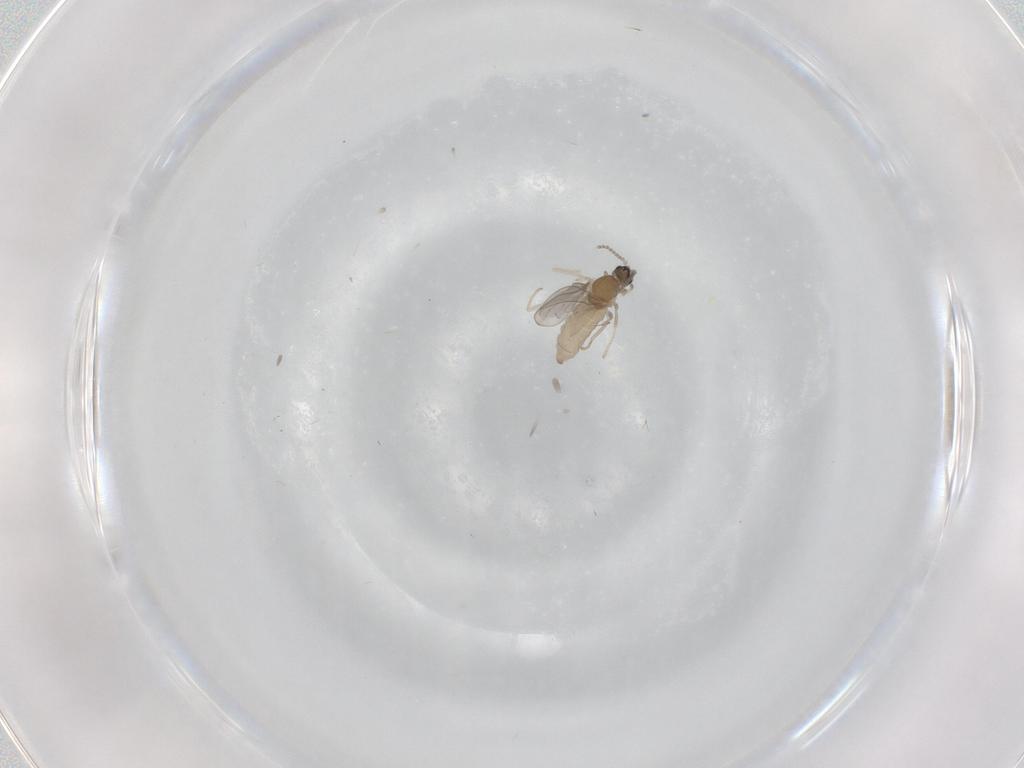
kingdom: Animalia
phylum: Arthropoda
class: Insecta
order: Diptera
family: Cecidomyiidae
